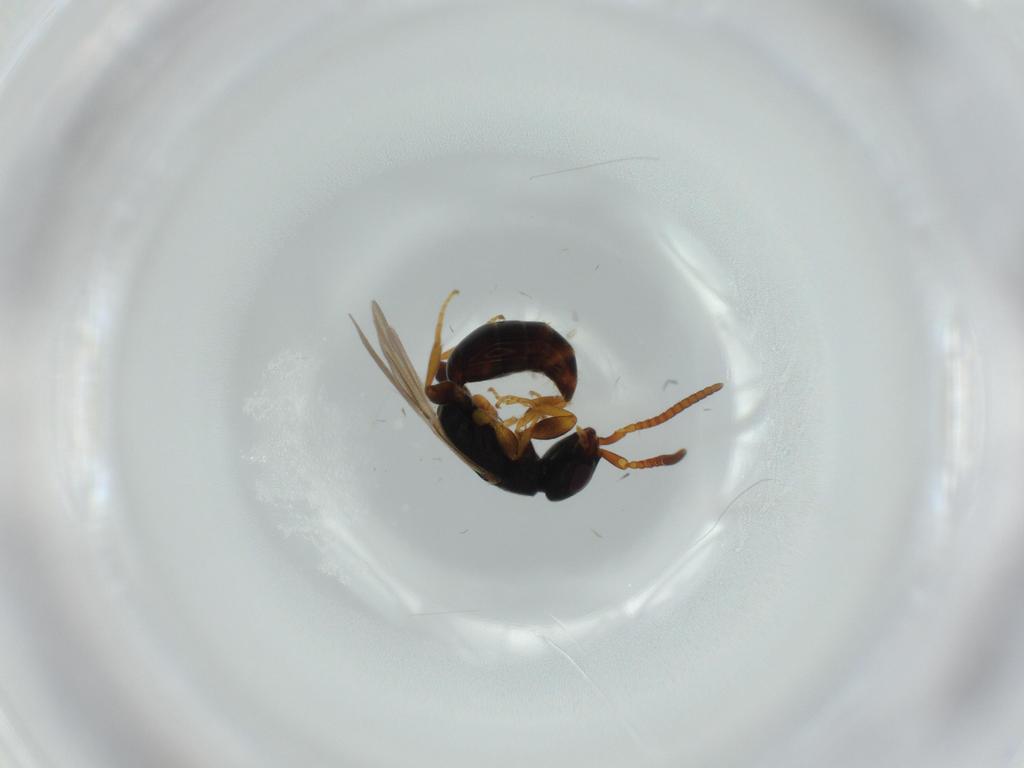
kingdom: Animalia
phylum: Arthropoda
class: Insecta
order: Hymenoptera
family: Bethylidae
